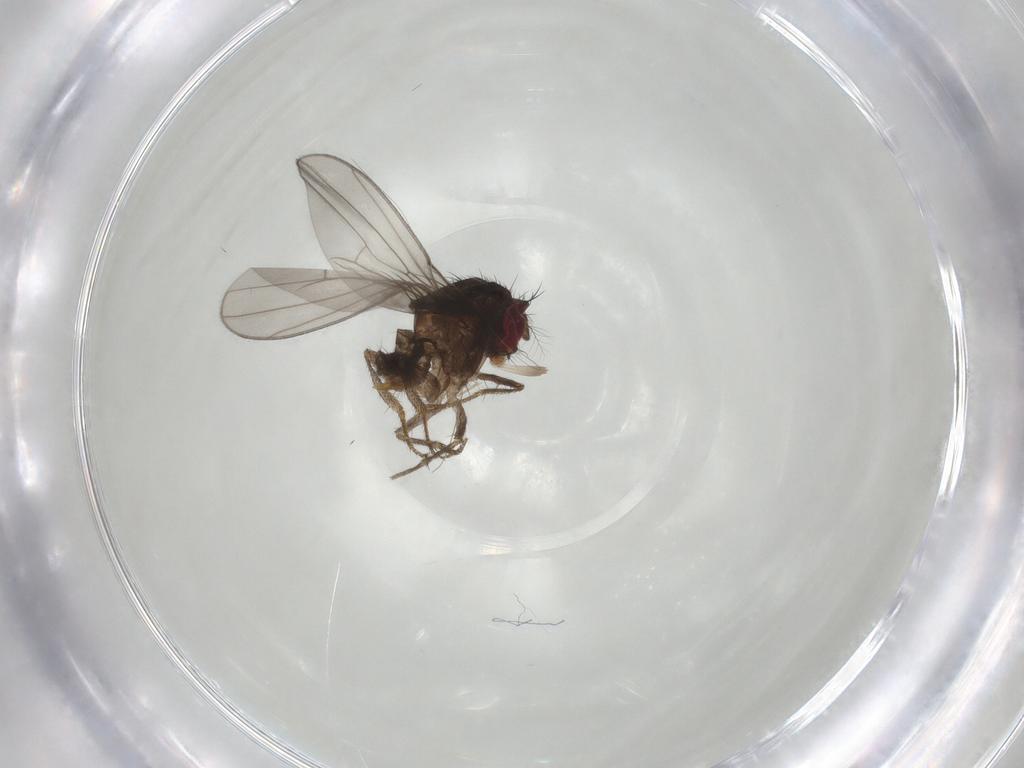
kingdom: Animalia
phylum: Arthropoda
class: Insecta
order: Diptera
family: Drosophilidae
